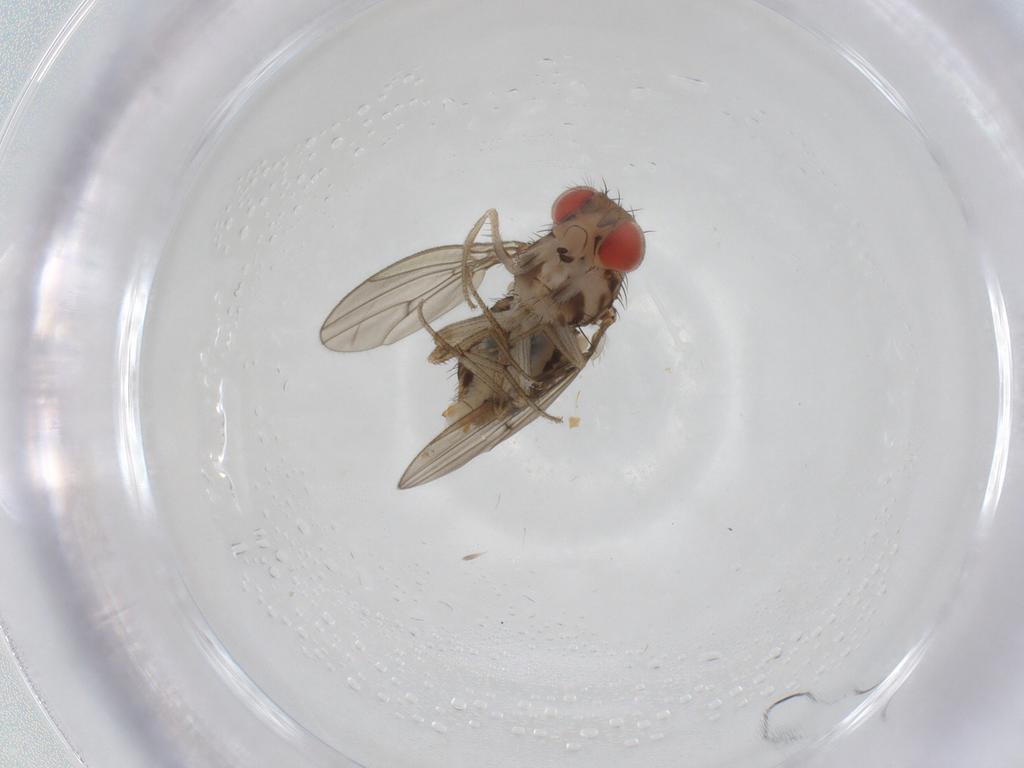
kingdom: Animalia
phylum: Arthropoda
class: Insecta
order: Diptera
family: Drosophilidae
